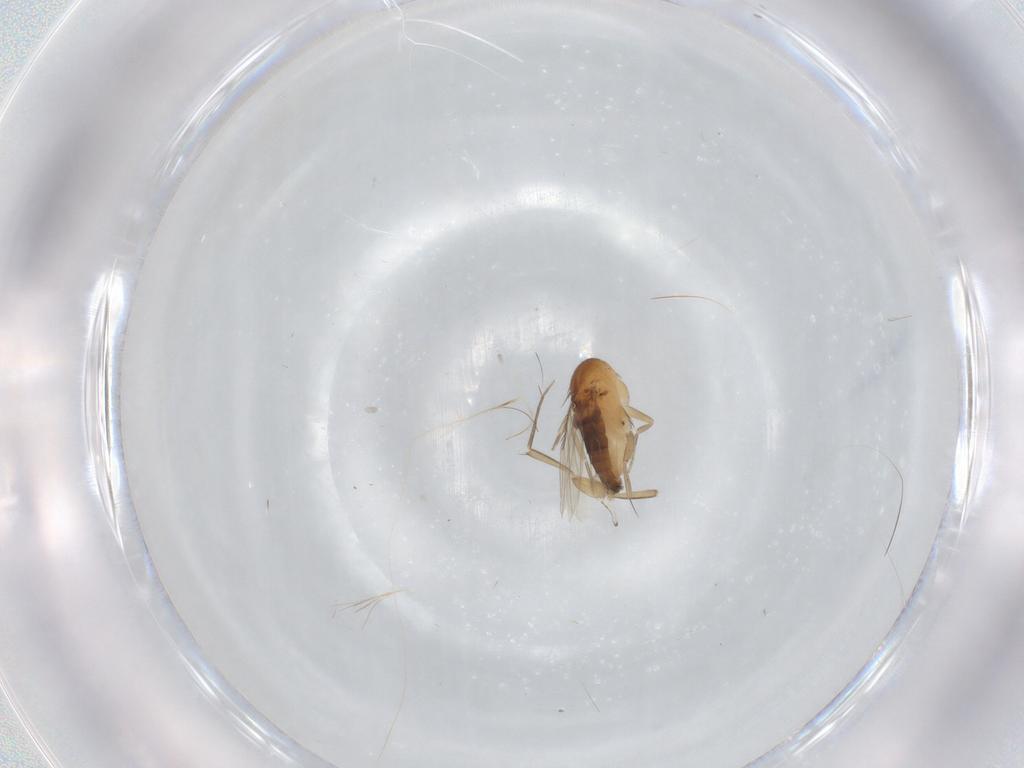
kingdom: Animalia
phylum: Arthropoda
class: Insecta
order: Diptera
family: Phoridae
